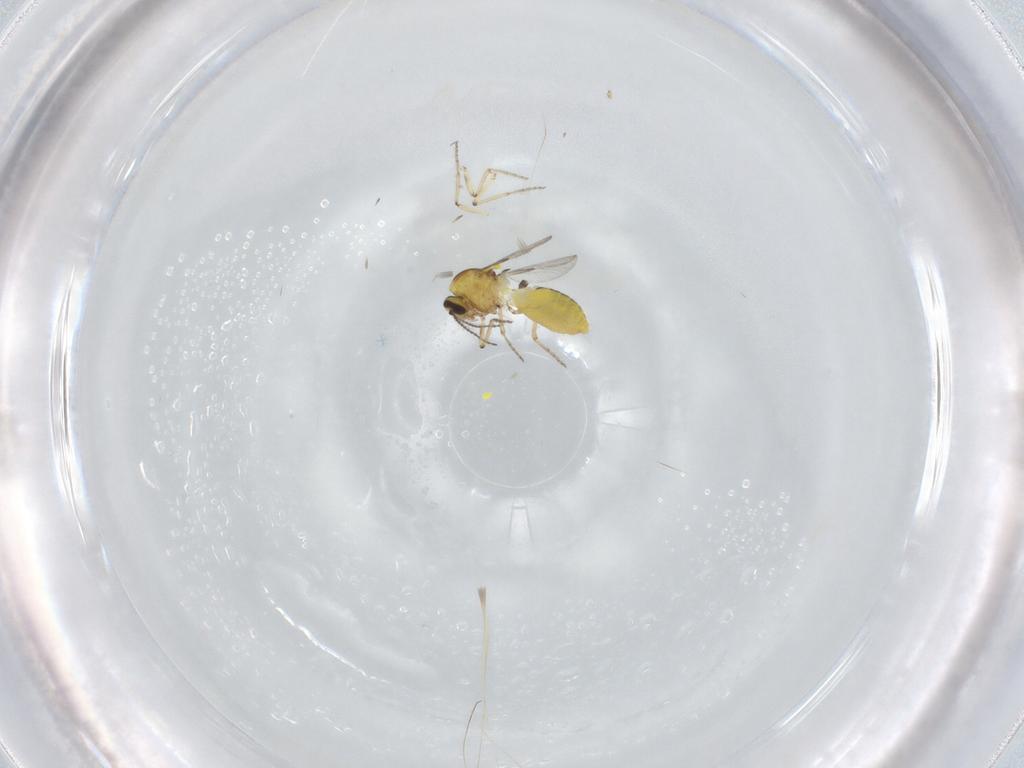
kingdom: Animalia
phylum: Arthropoda
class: Insecta
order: Diptera
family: Ceratopogonidae
